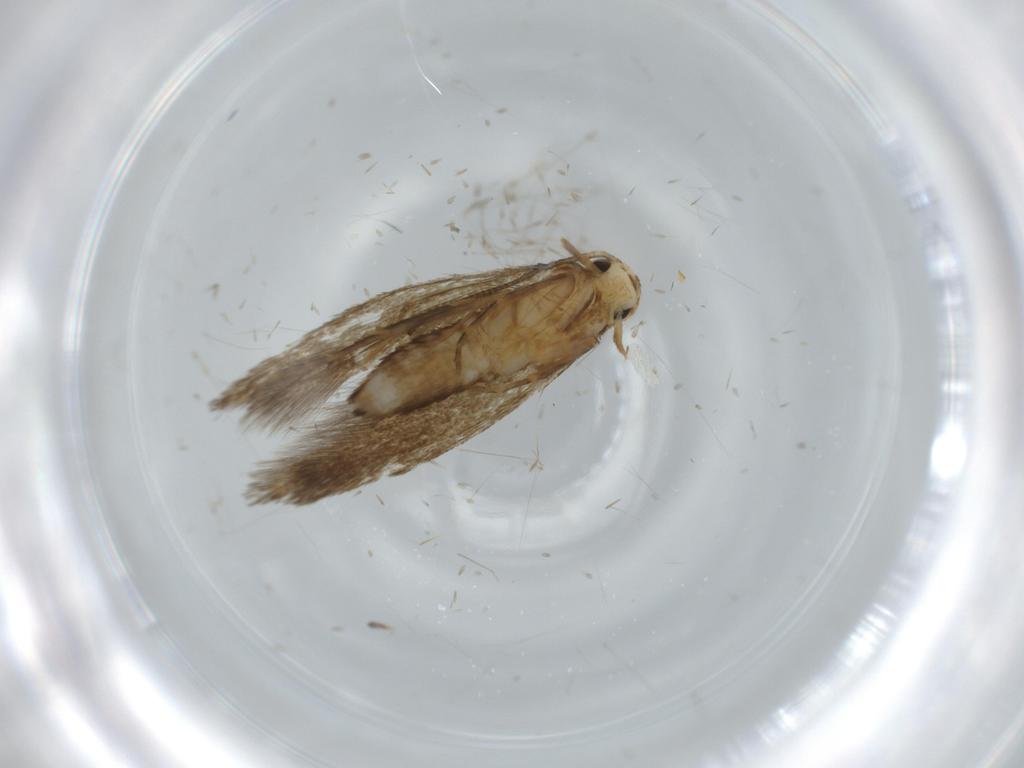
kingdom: Animalia
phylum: Arthropoda
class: Insecta
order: Lepidoptera
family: Tineidae
